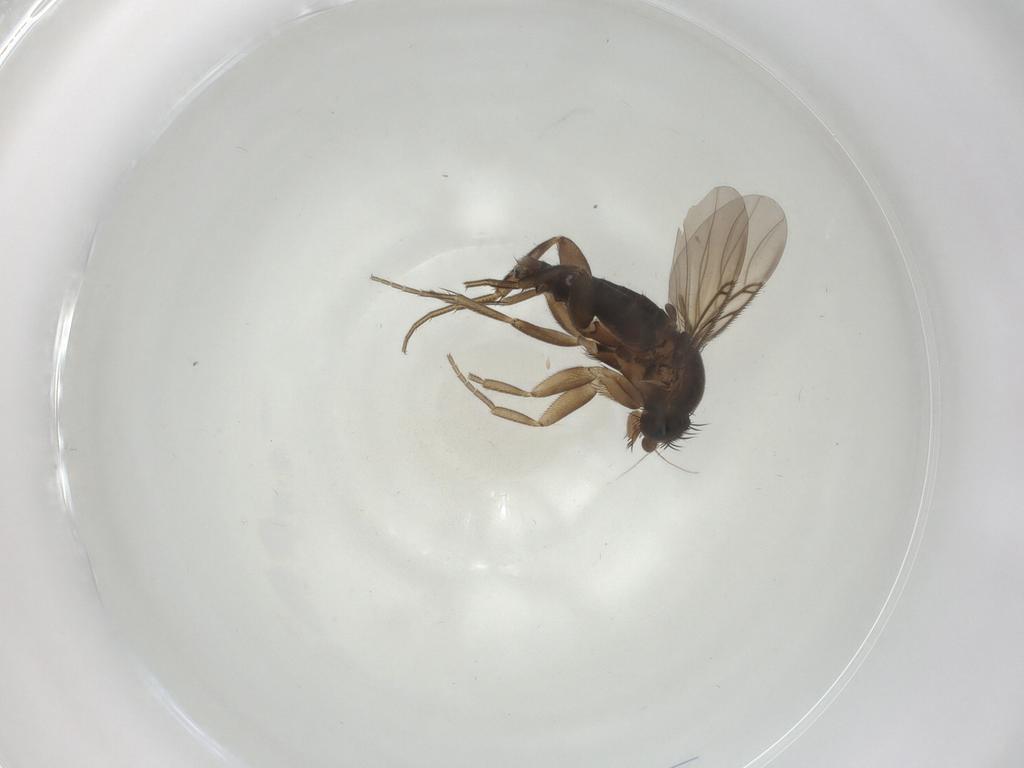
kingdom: Animalia
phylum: Arthropoda
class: Insecta
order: Diptera
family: Phoridae
